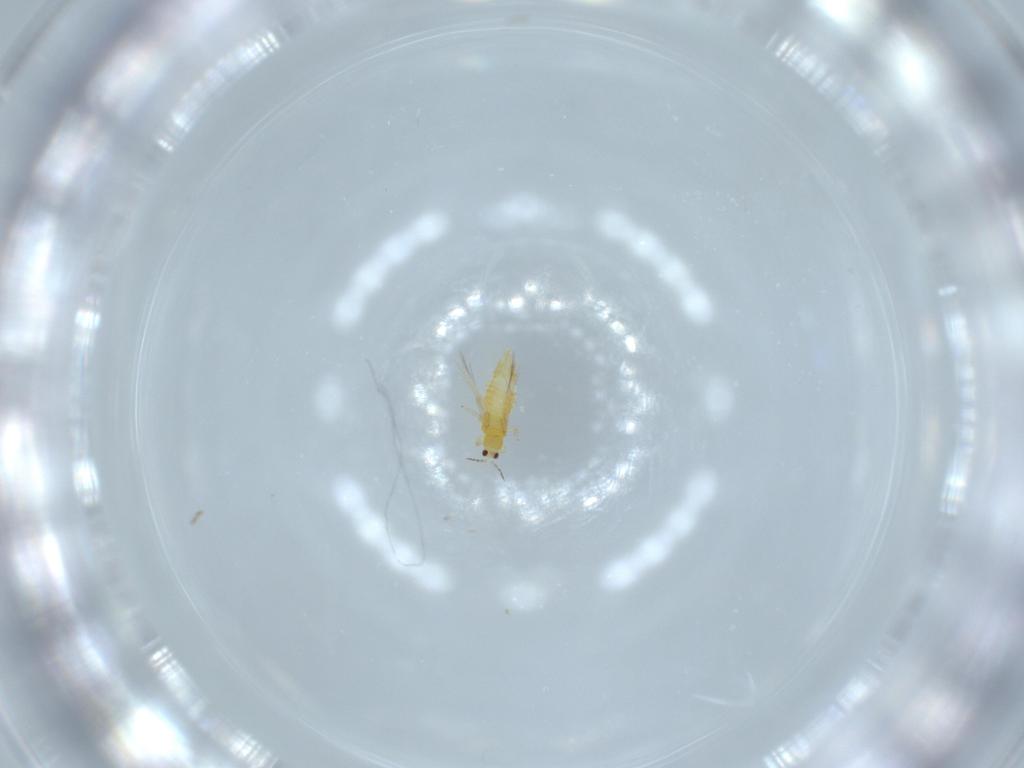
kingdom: Animalia
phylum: Arthropoda
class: Insecta
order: Thysanoptera
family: Thripidae
